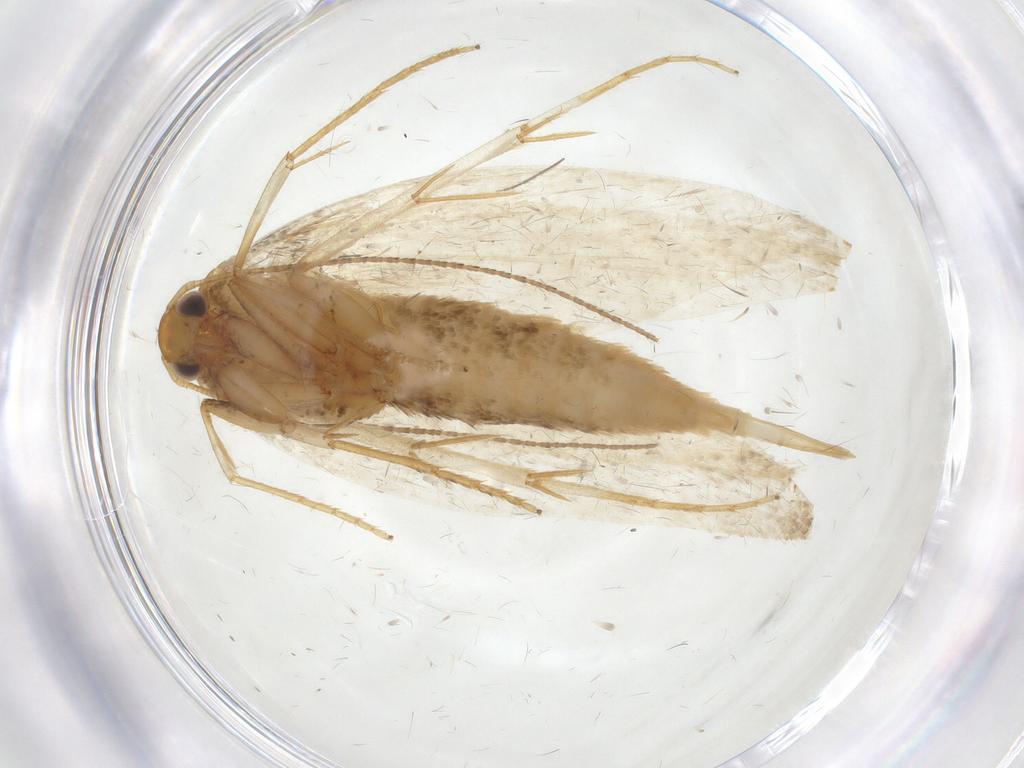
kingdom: Animalia
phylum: Arthropoda
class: Insecta
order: Lepidoptera
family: Oecophoridae
